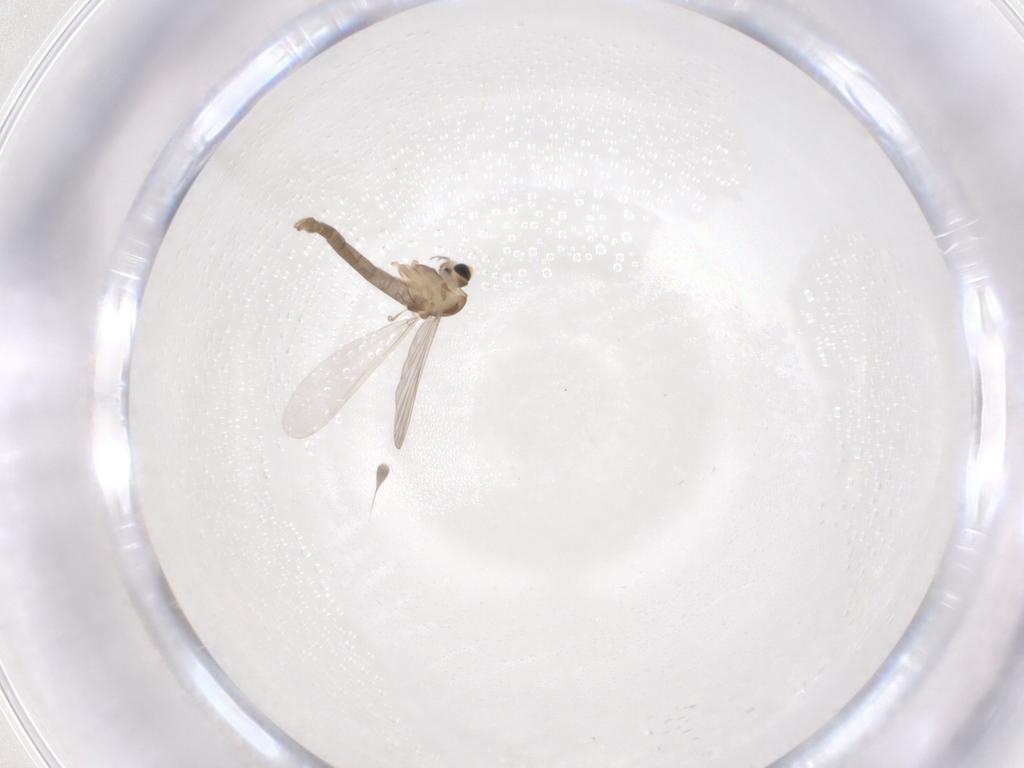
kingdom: Animalia
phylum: Arthropoda
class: Insecta
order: Diptera
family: Chironomidae
